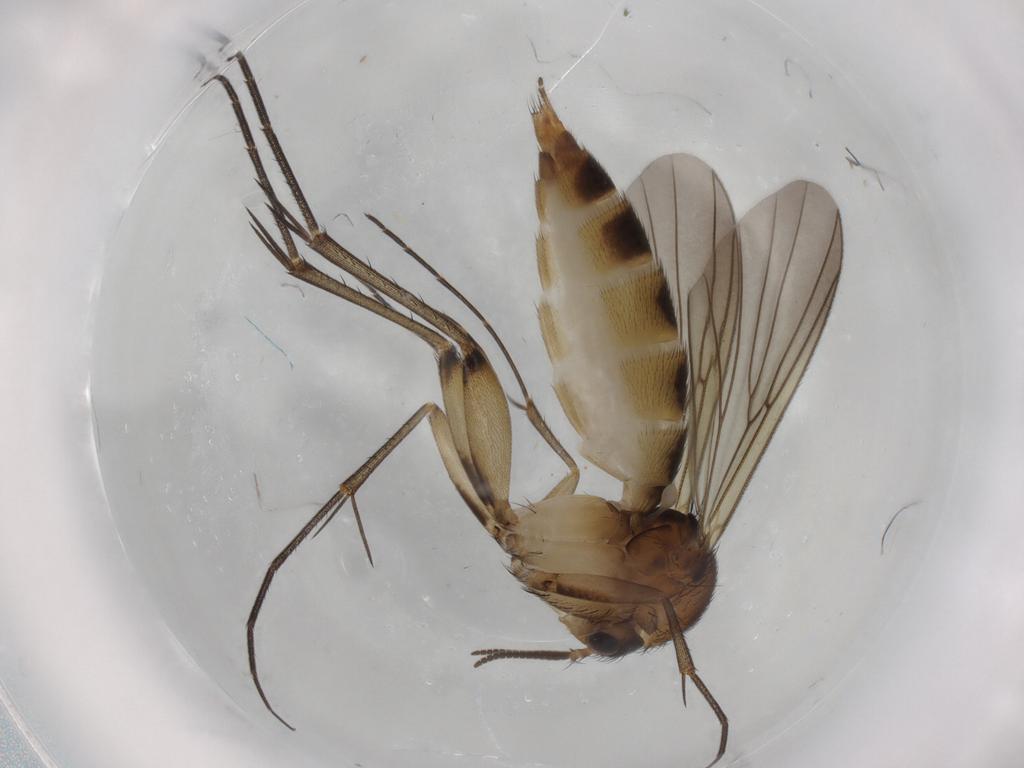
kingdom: Animalia
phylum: Arthropoda
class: Insecta
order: Diptera
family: Mycetophilidae
